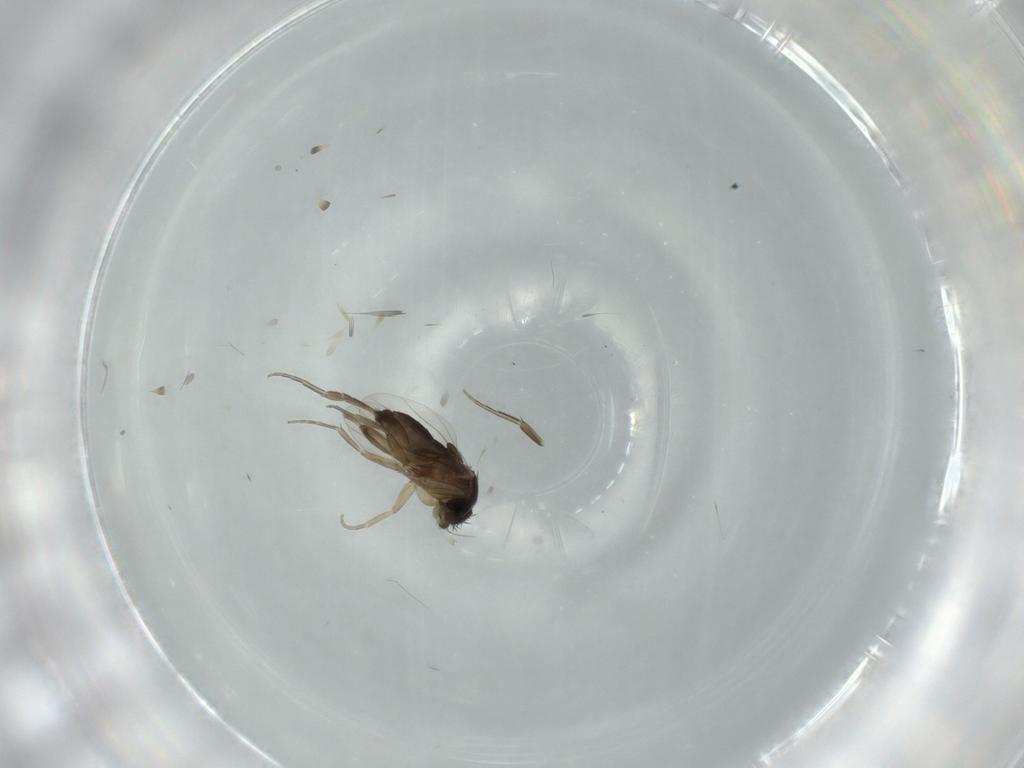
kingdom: Animalia
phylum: Arthropoda
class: Insecta
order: Diptera
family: Phoridae
